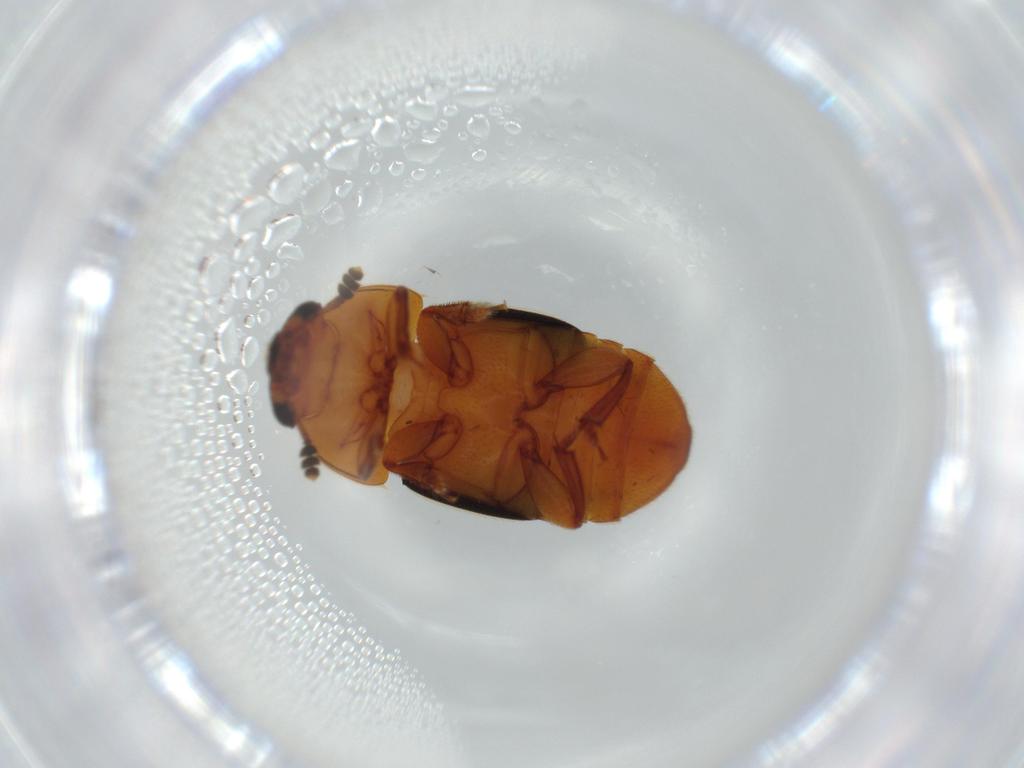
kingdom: Animalia
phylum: Arthropoda
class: Insecta
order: Coleoptera
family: Nitidulidae
